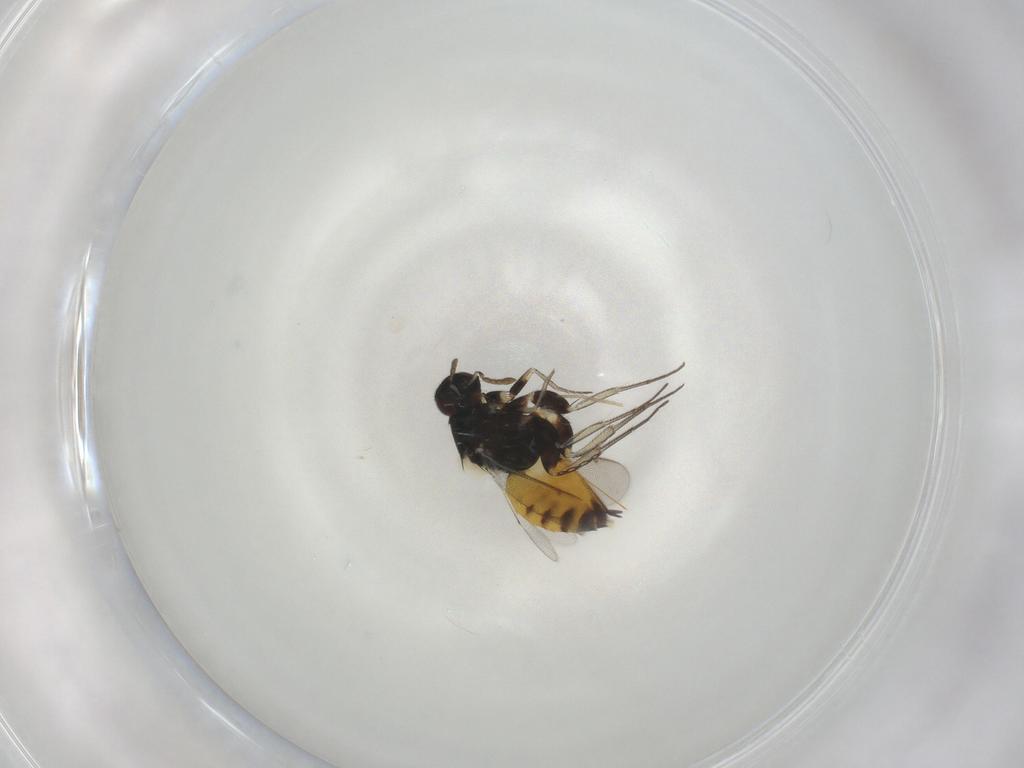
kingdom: Animalia
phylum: Arthropoda
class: Insecta
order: Diptera
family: Chironomidae
